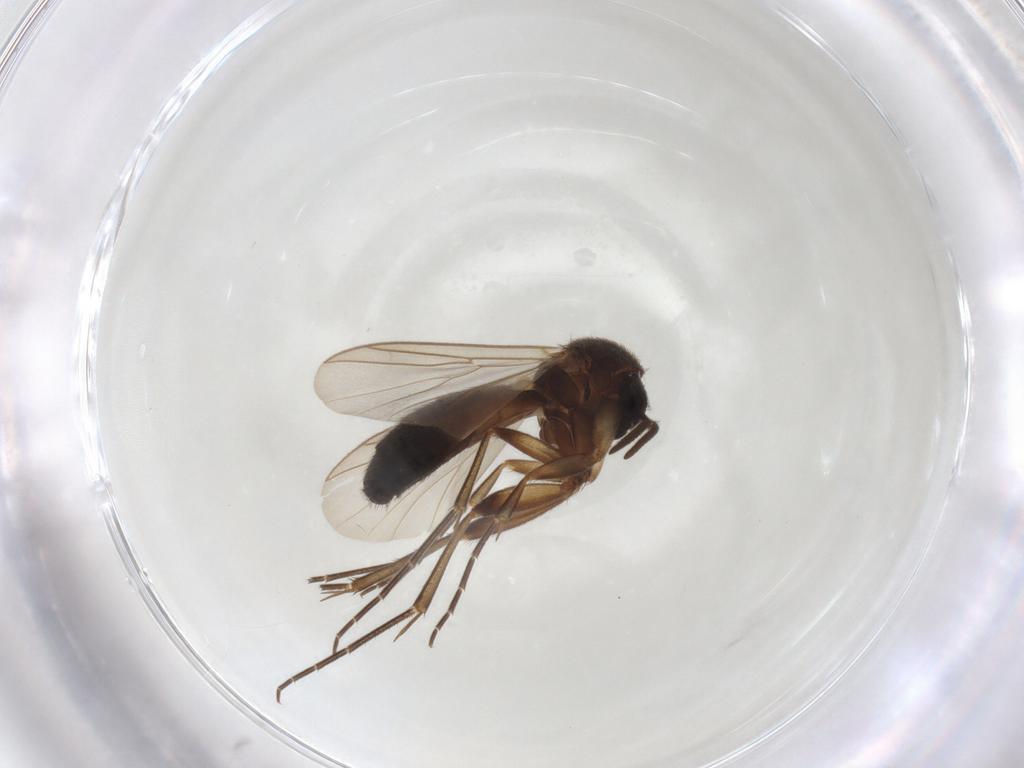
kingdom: Animalia
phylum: Arthropoda
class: Insecta
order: Diptera
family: Mycetophilidae
